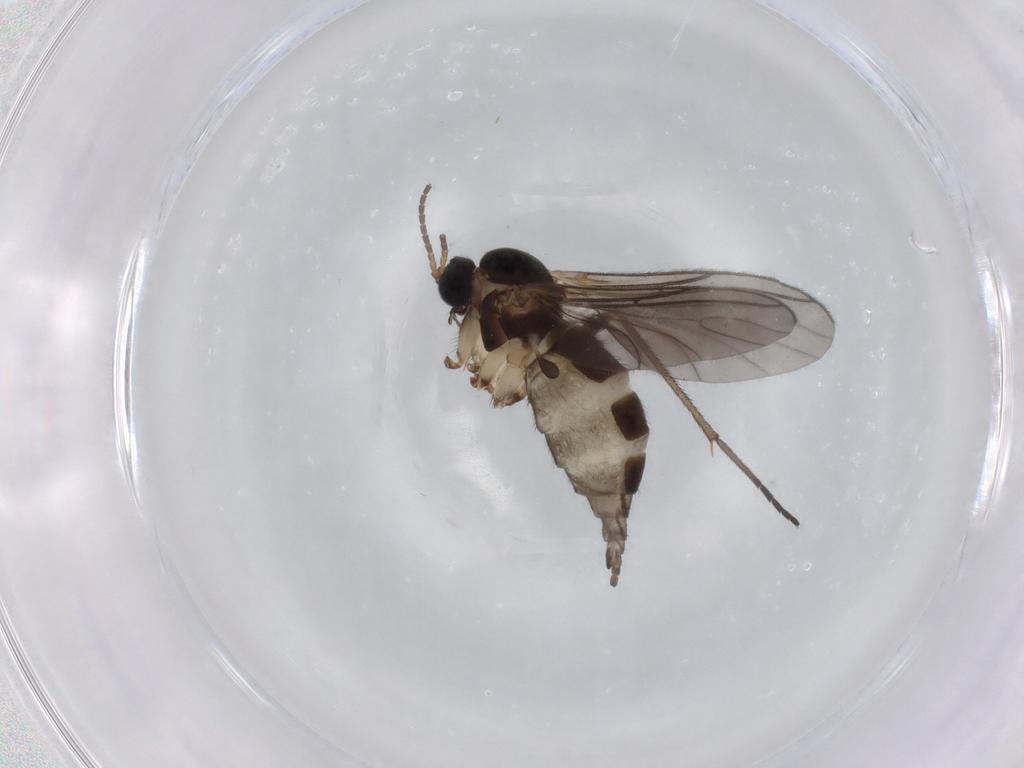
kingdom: Animalia
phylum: Arthropoda
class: Insecta
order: Diptera
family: Sciaridae
